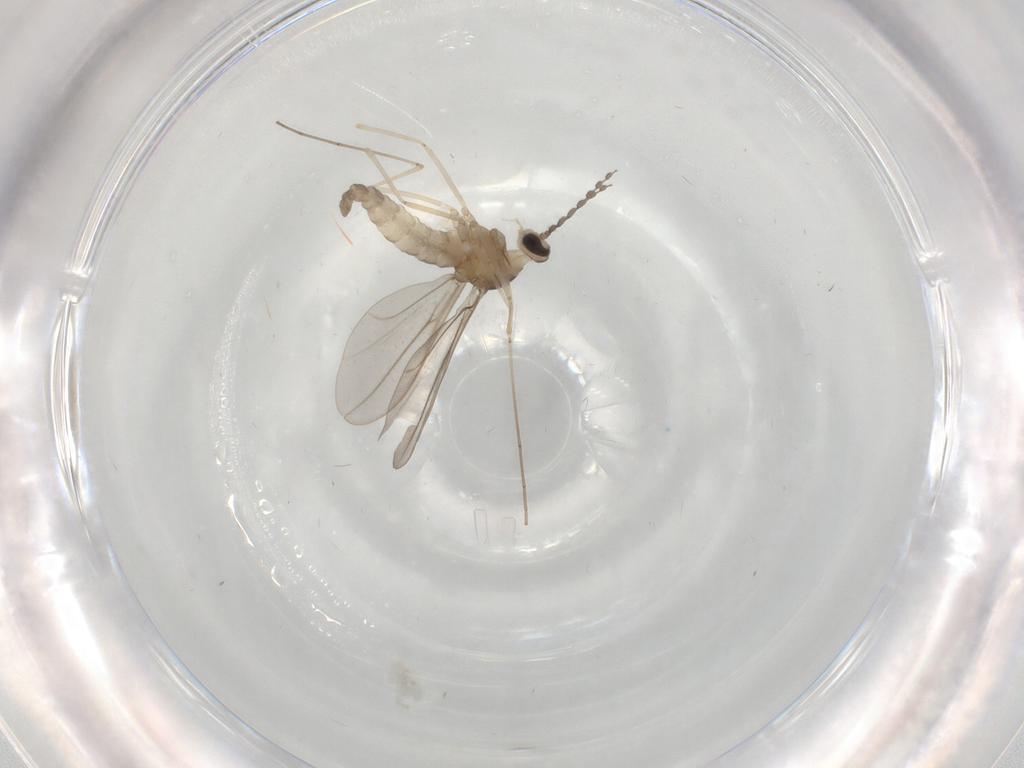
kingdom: Animalia
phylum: Arthropoda
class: Insecta
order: Diptera
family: Cecidomyiidae
